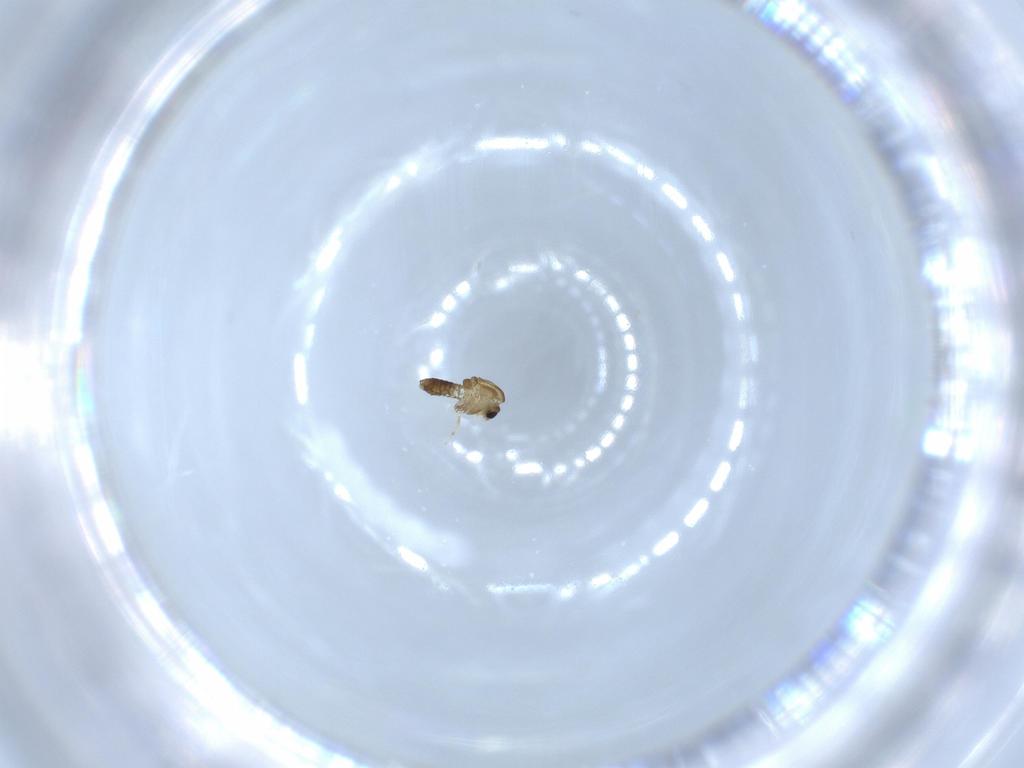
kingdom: Animalia
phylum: Arthropoda
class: Insecta
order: Diptera
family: Chironomidae
